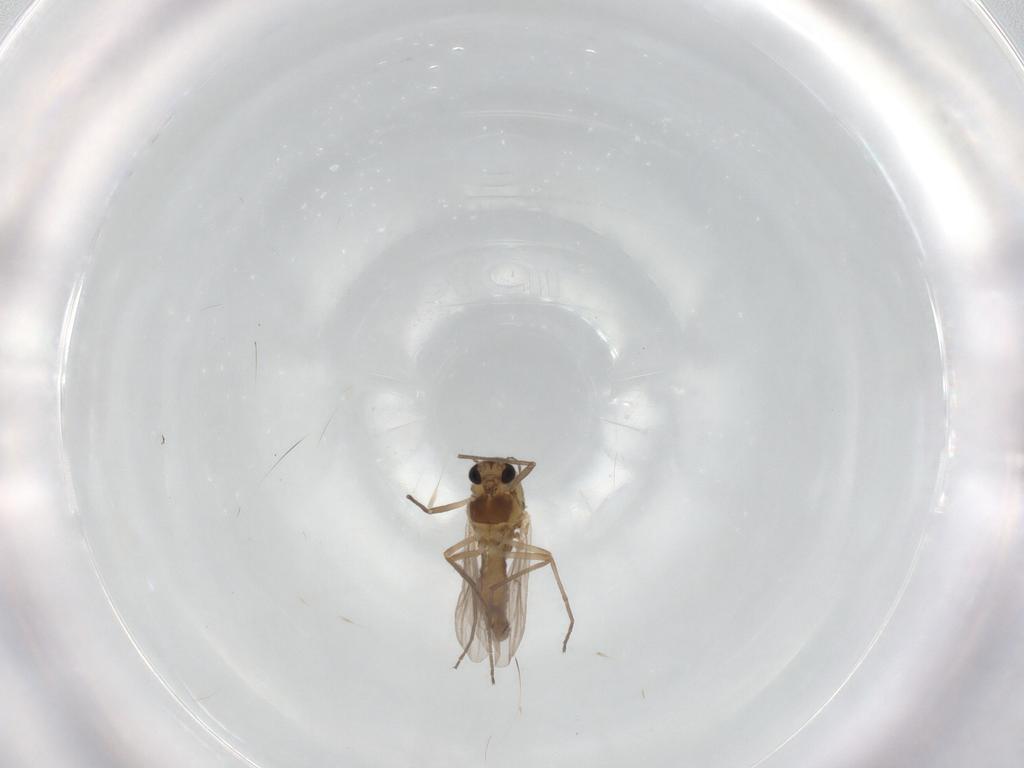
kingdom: Animalia
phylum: Arthropoda
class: Insecta
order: Diptera
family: Chironomidae
